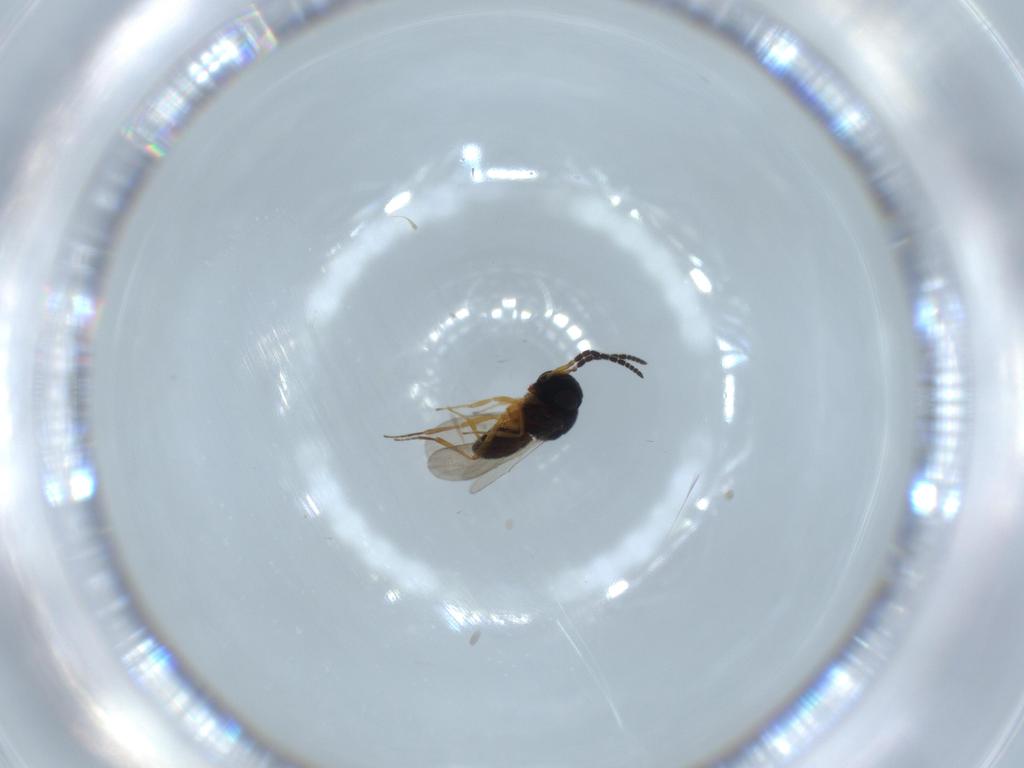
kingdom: Animalia
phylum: Arthropoda
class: Insecta
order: Hymenoptera
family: Scelionidae
